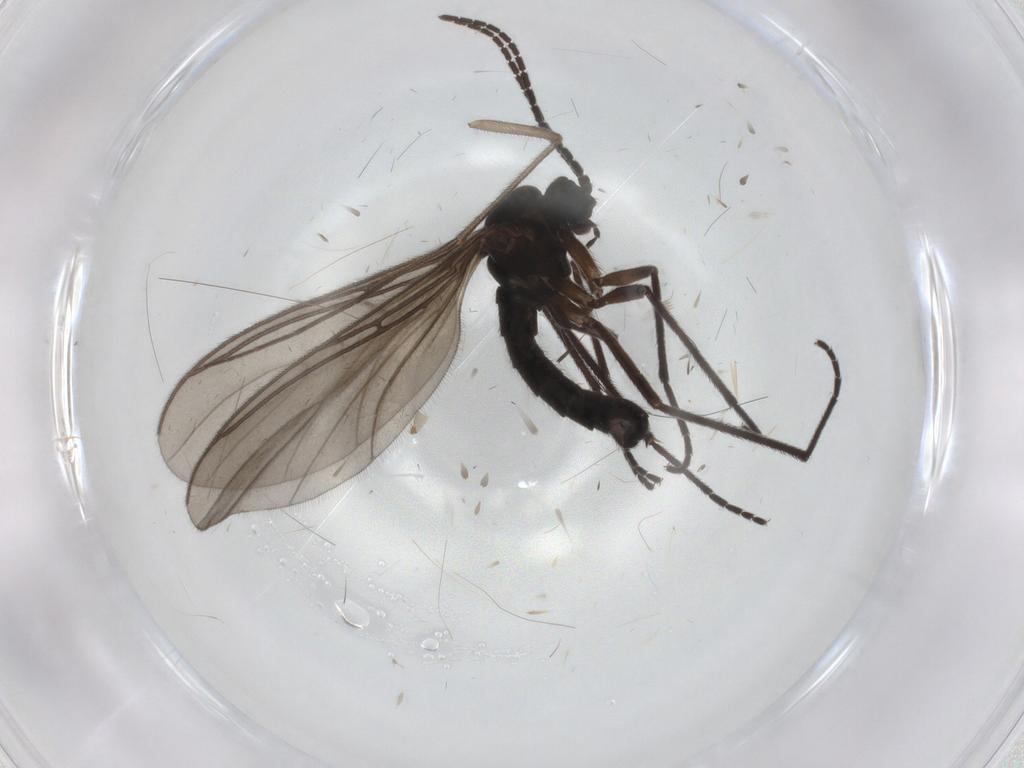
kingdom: Animalia
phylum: Arthropoda
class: Insecta
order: Diptera
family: Sciaridae
